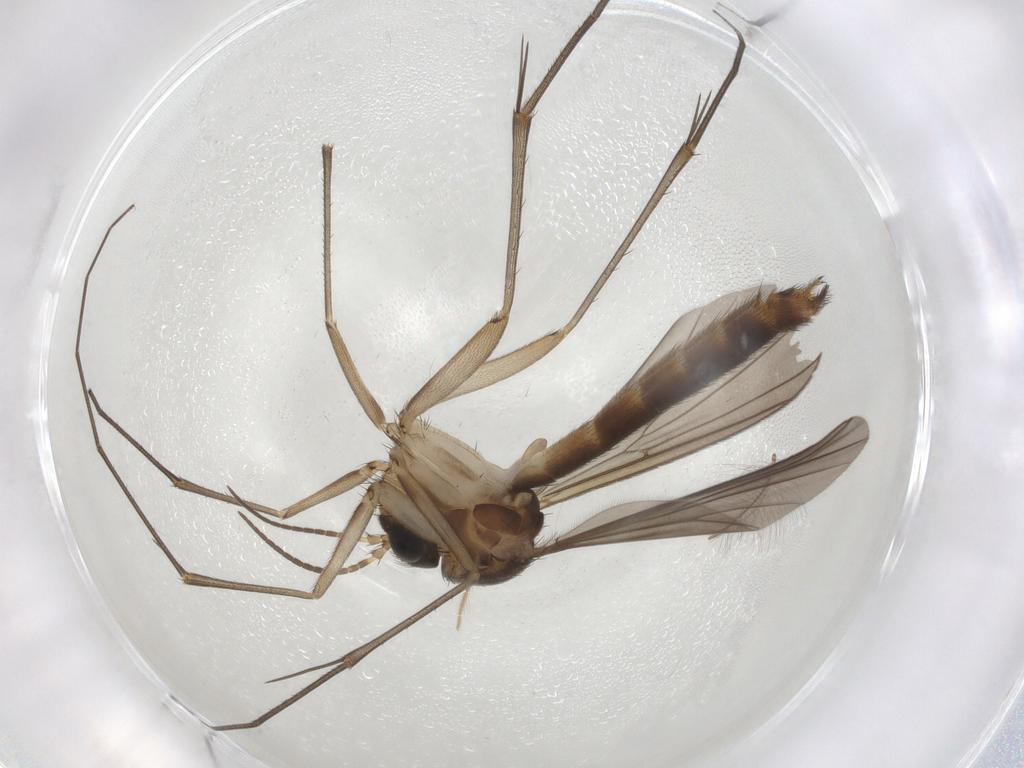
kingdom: Animalia
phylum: Arthropoda
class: Insecta
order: Diptera
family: Mycetophilidae
